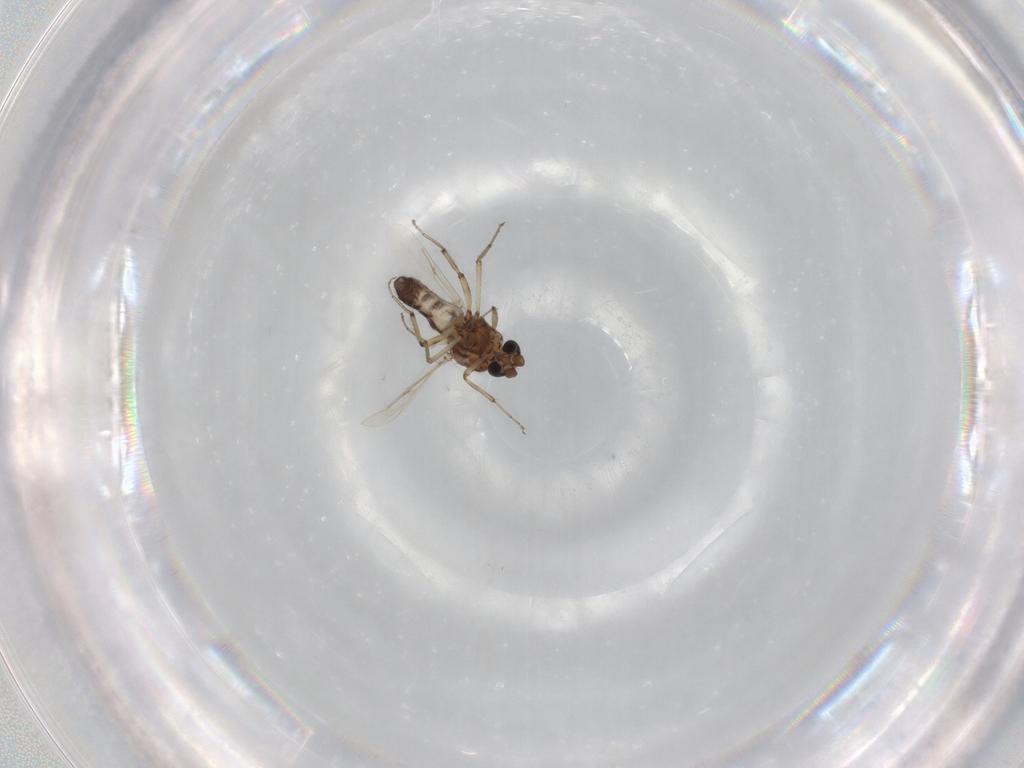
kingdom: Animalia
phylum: Arthropoda
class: Insecta
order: Diptera
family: Ceratopogonidae
